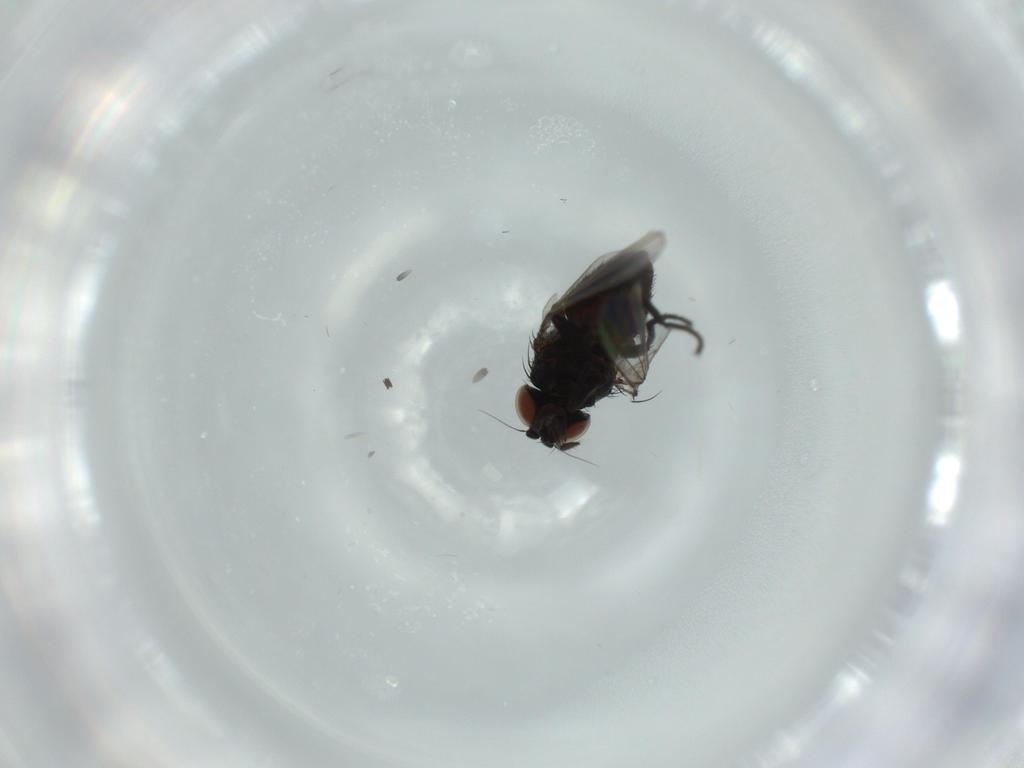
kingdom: Animalia
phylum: Arthropoda
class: Insecta
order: Diptera
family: Milichiidae
